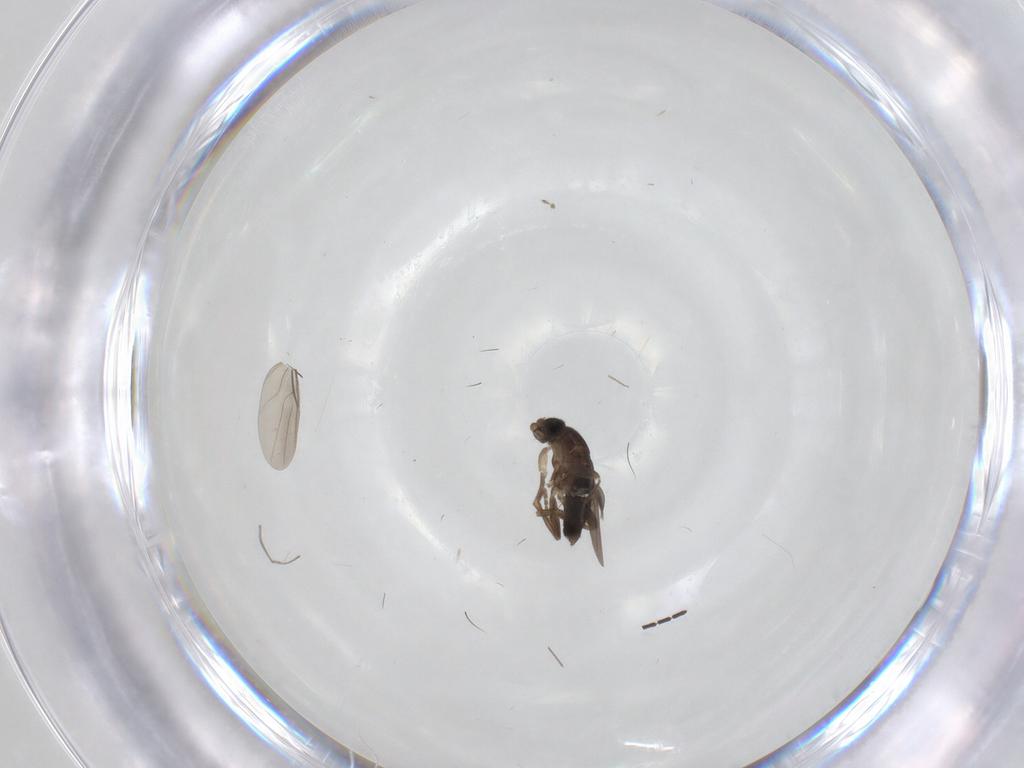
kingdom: Animalia
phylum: Arthropoda
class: Insecta
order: Diptera
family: Phoridae
